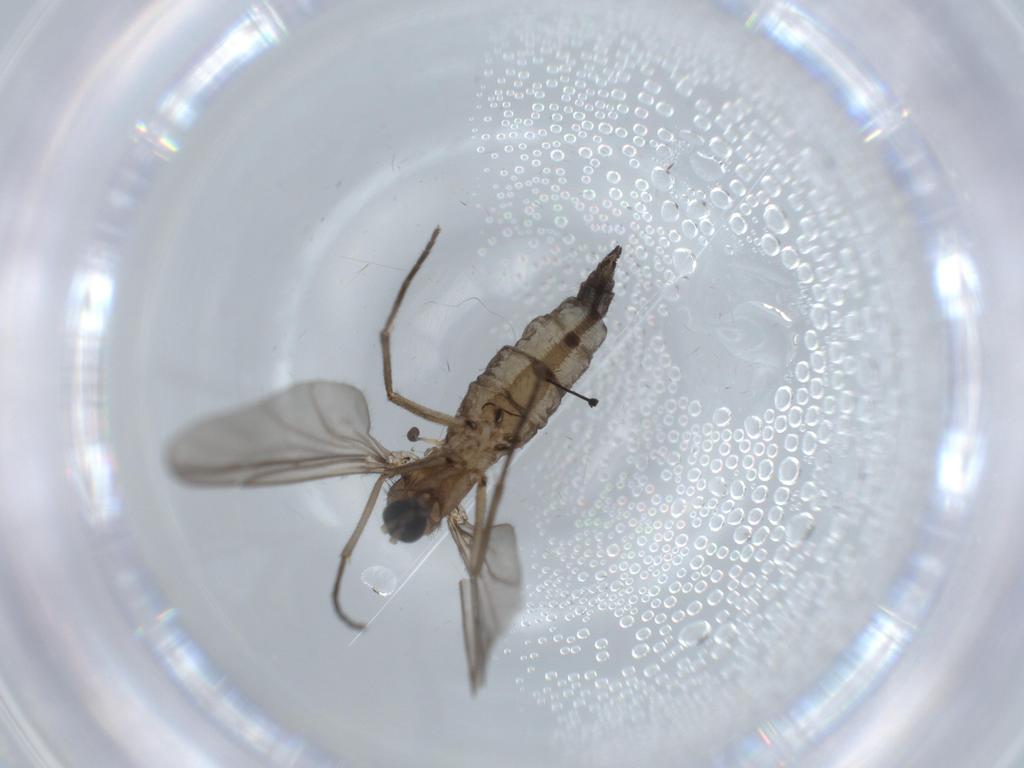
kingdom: Animalia
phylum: Arthropoda
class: Insecta
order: Diptera
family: Sciaridae
